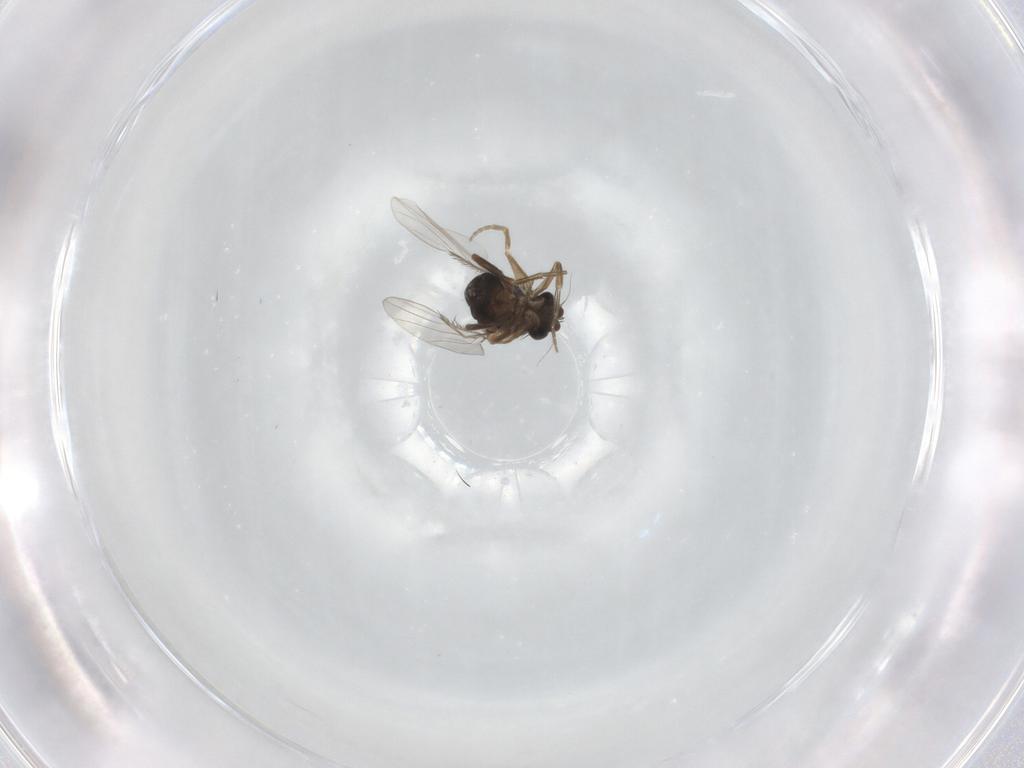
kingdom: Animalia
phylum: Arthropoda
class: Insecta
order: Diptera
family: Phoridae
